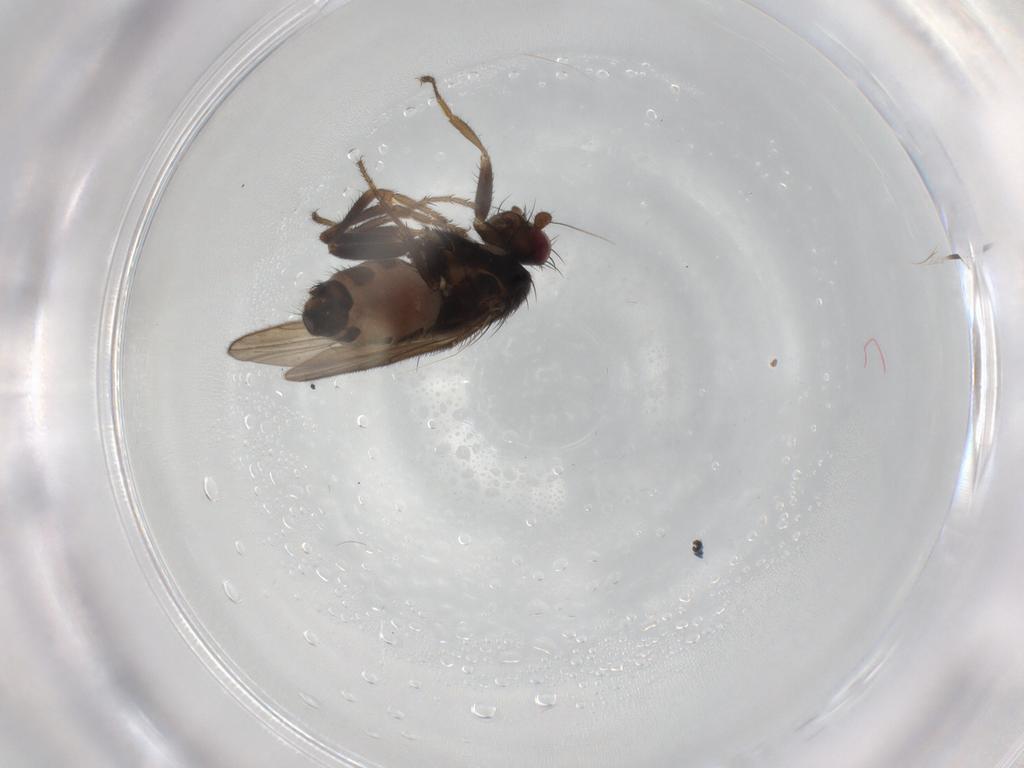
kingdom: Animalia
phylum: Arthropoda
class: Insecta
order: Diptera
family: Sphaeroceridae
